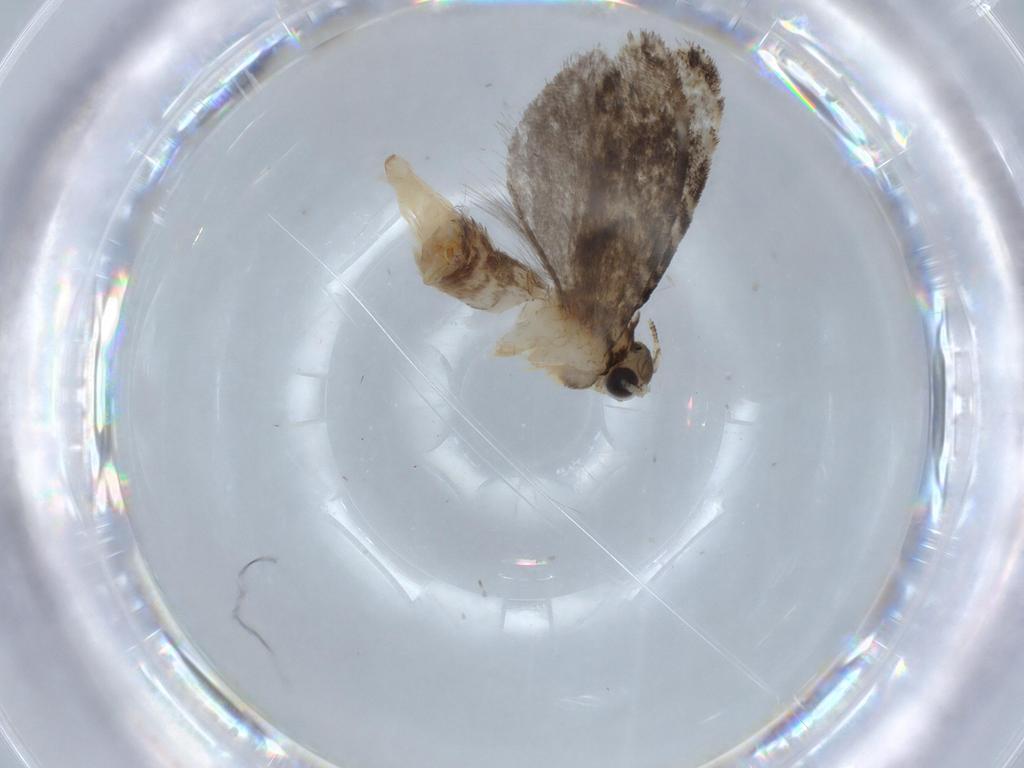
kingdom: Animalia
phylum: Arthropoda
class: Insecta
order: Lepidoptera
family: Tineidae
